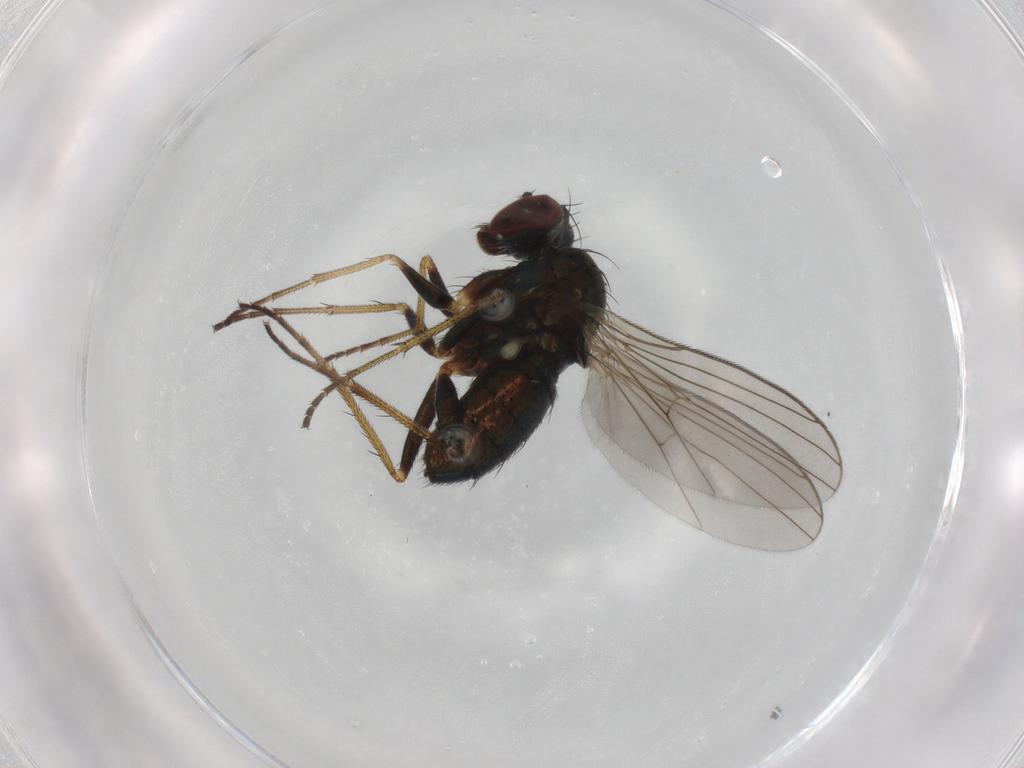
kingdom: Animalia
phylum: Arthropoda
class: Insecta
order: Diptera
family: Dolichopodidae
